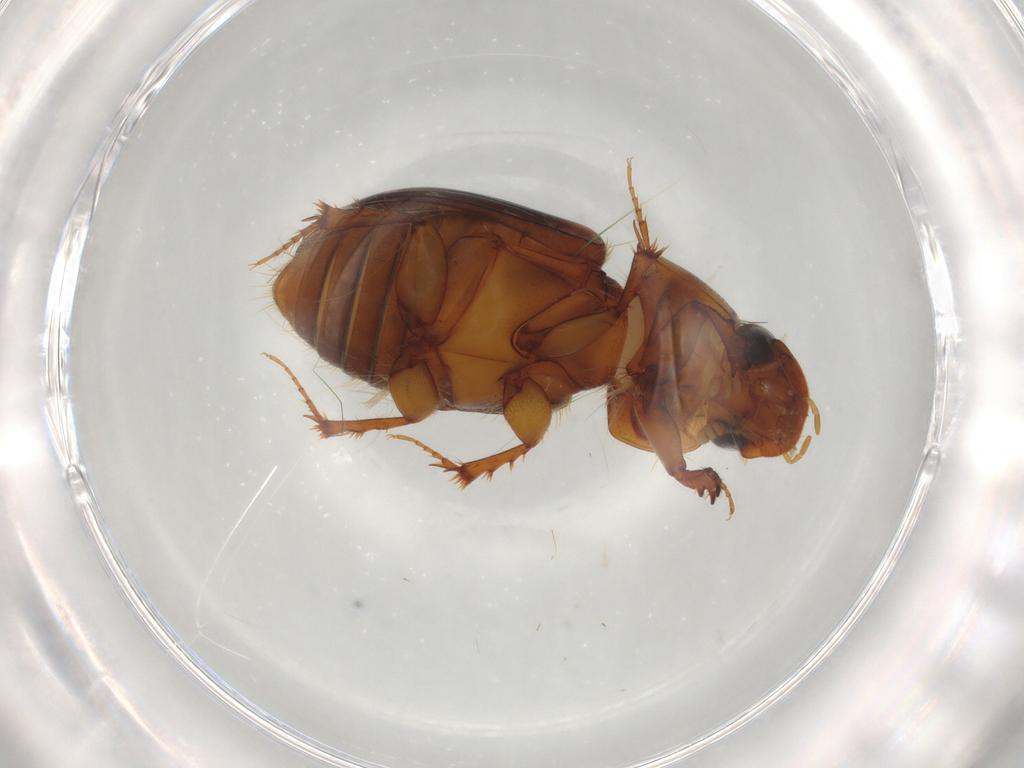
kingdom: Animalia
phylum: Arthropoda
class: Insecta
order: Coleoptera
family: Scarabaeidae
